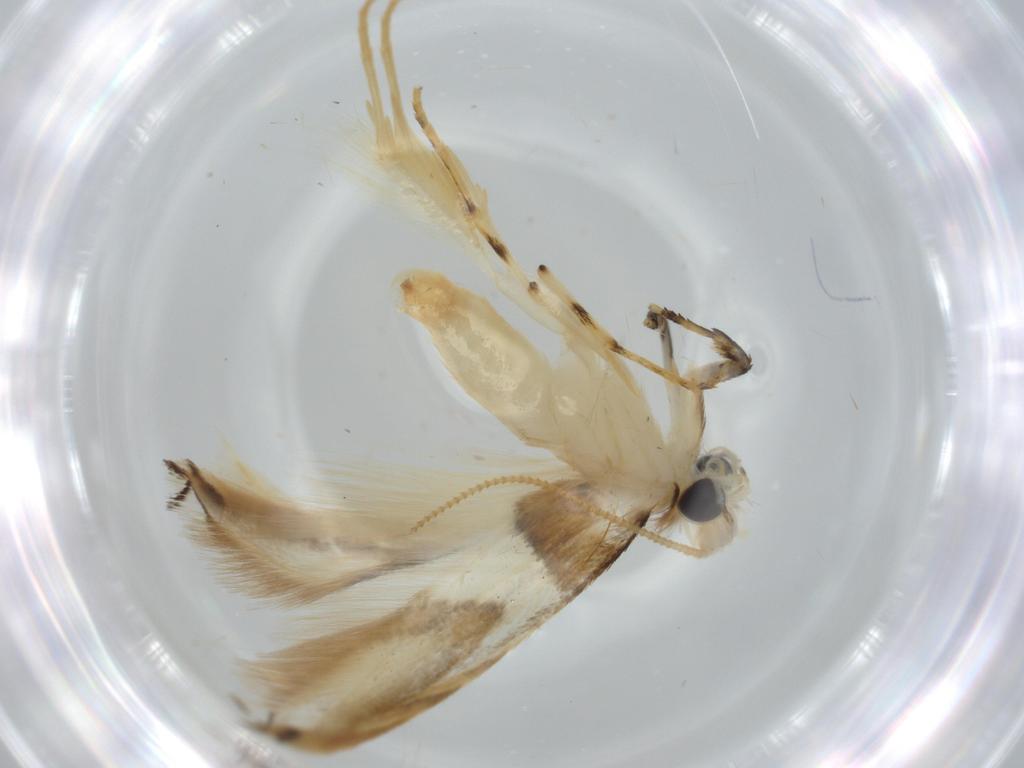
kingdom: Animalia
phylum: Arthropoda
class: Insecta
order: Lepidoptera
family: Tineidae
